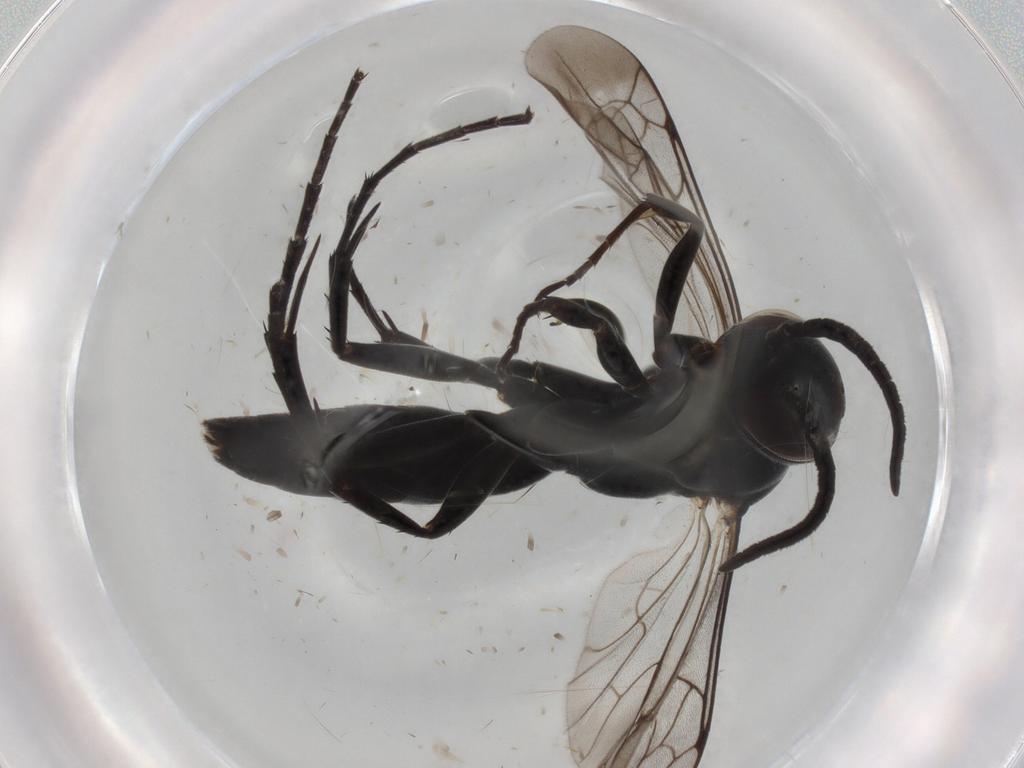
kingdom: Animalia
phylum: Arthropoda
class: Insecta
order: Hymenoptera
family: Pompilidae
